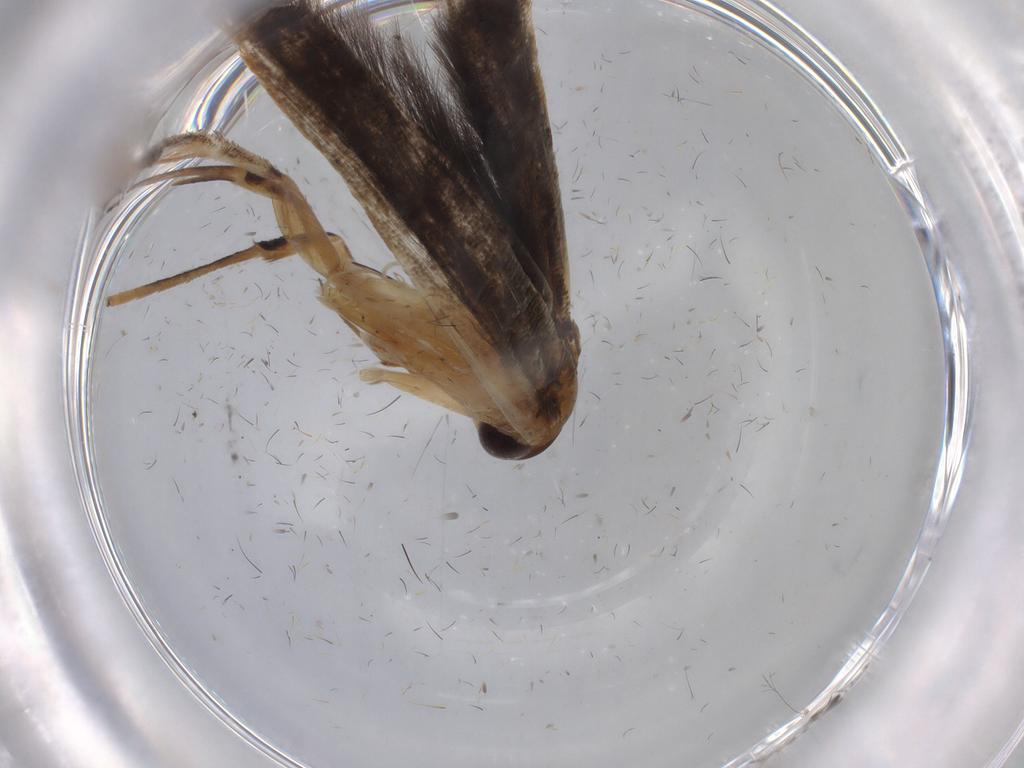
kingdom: Animalia
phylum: Arthropoda
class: Insecta
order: Lepidoptera
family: Gracillariidae
